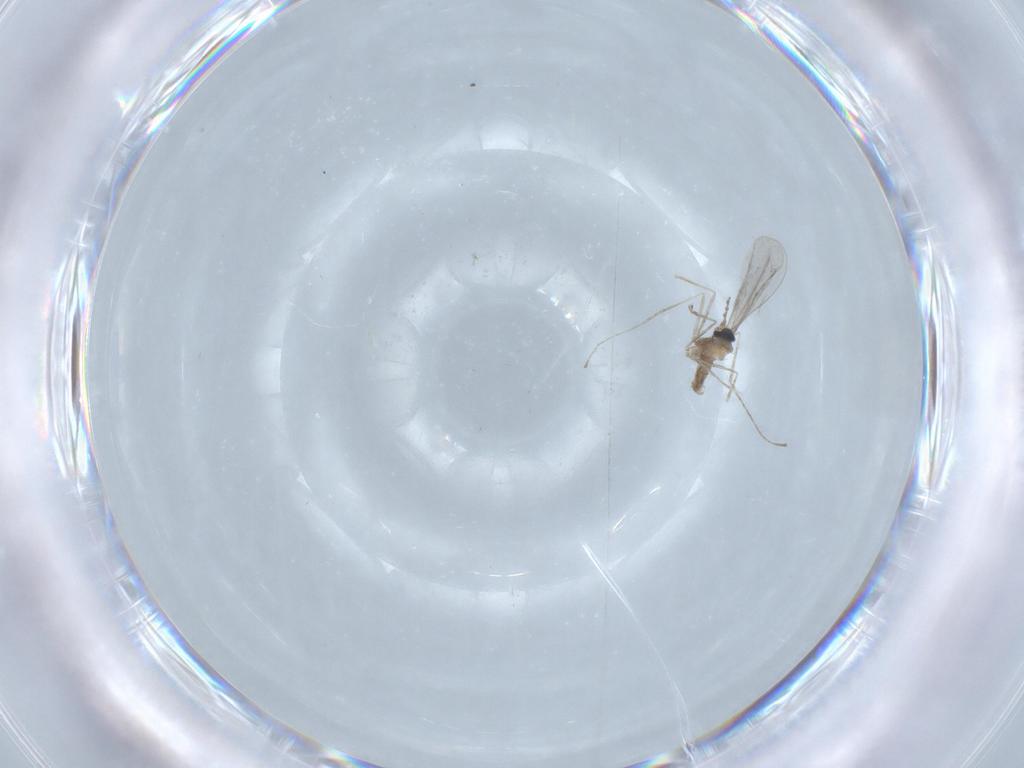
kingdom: Animalia
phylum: Arthropoda
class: Insecta
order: Diptera
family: Cecidomyiidae
